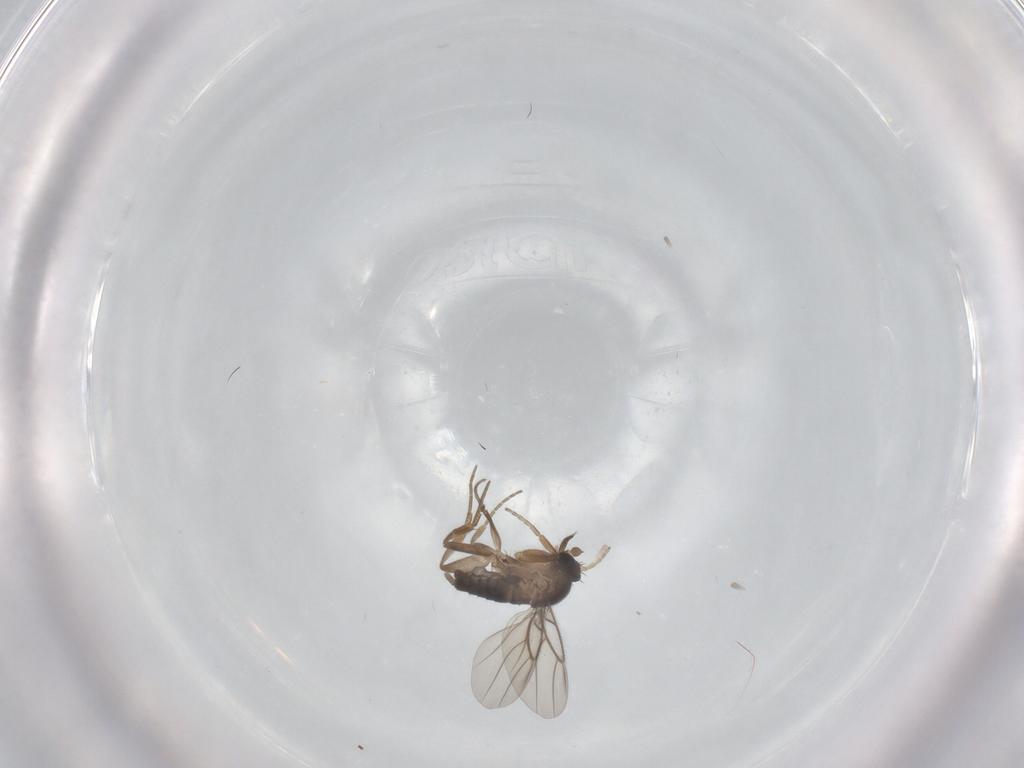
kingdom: Animalia
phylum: Arthropoda
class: Insecta
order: Diptera
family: Phoridae
